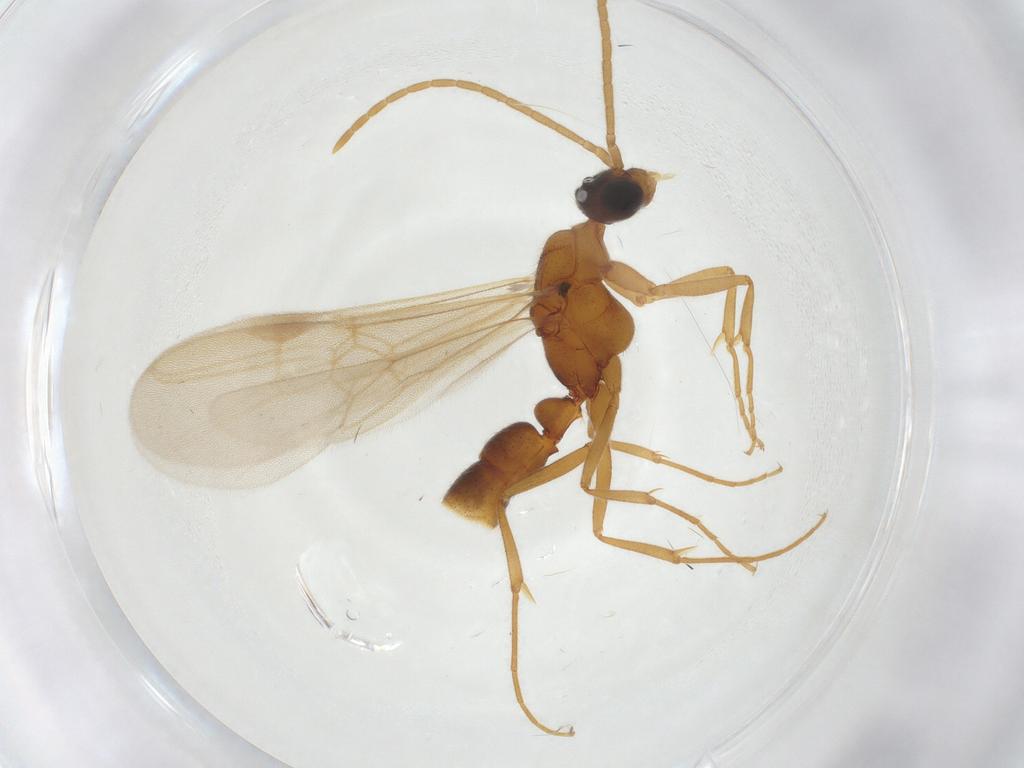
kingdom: Animalia
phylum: Arthropoda
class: Insecta
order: Hymenoptera
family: Formicidae
